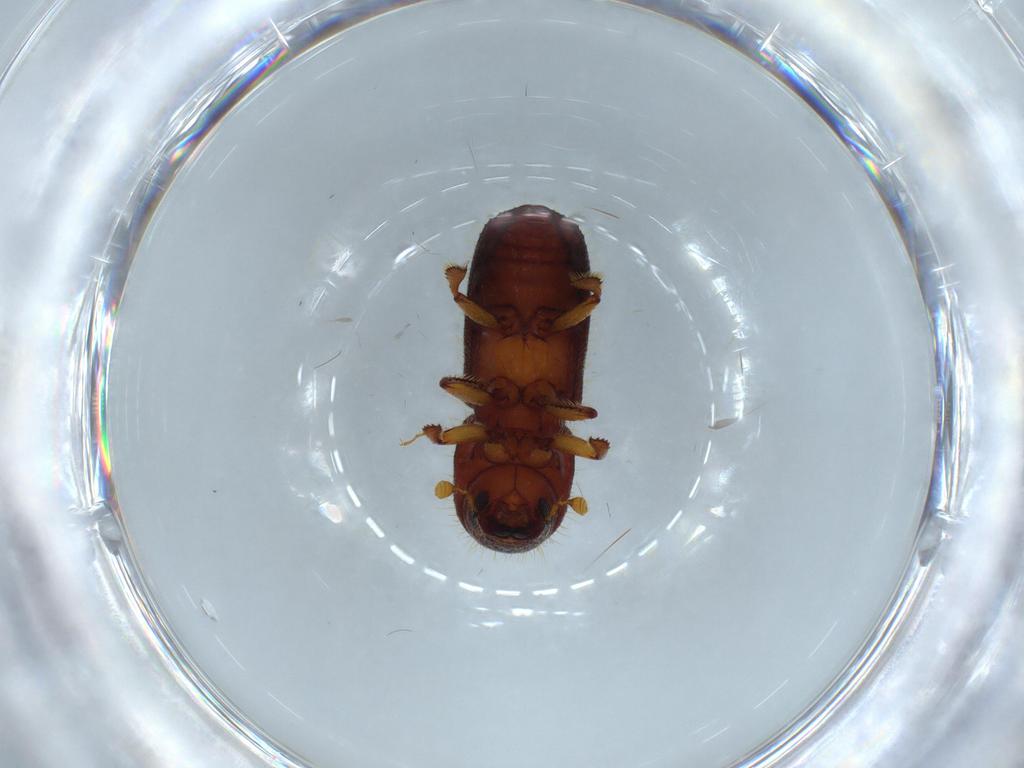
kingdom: Animalia
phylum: Arthropoda
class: Insecta
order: Coleoptera
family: Curculionidae
